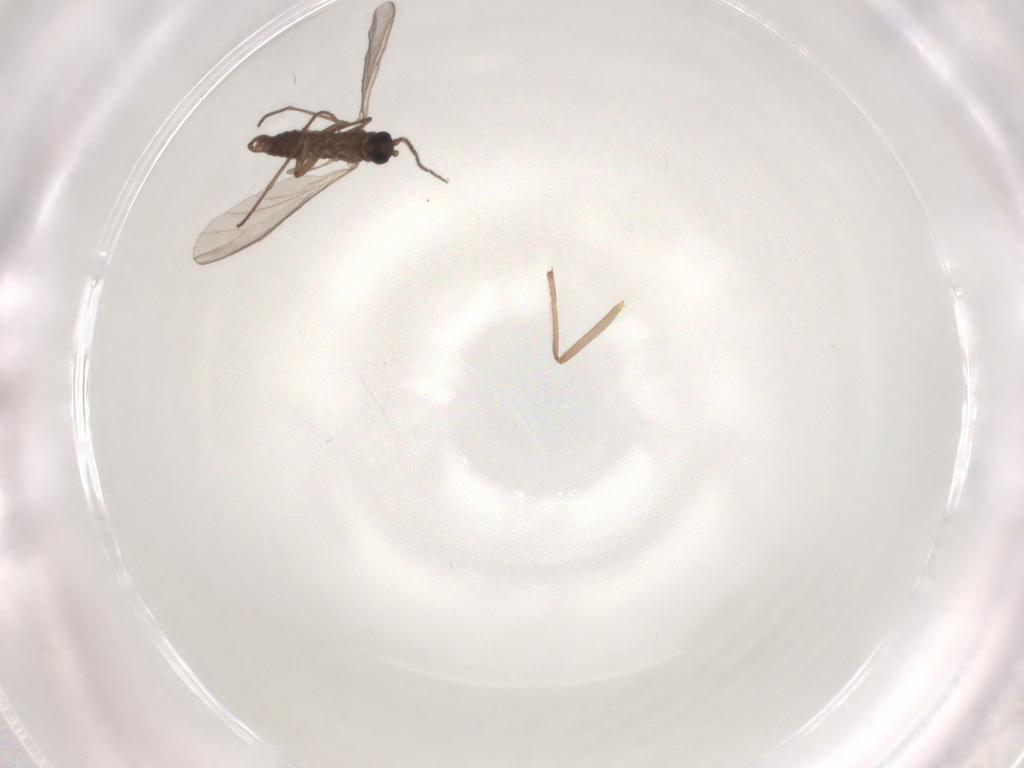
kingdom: Animalia
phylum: Arthropoda
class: Insecta
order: Diptera
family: Sciaridae
